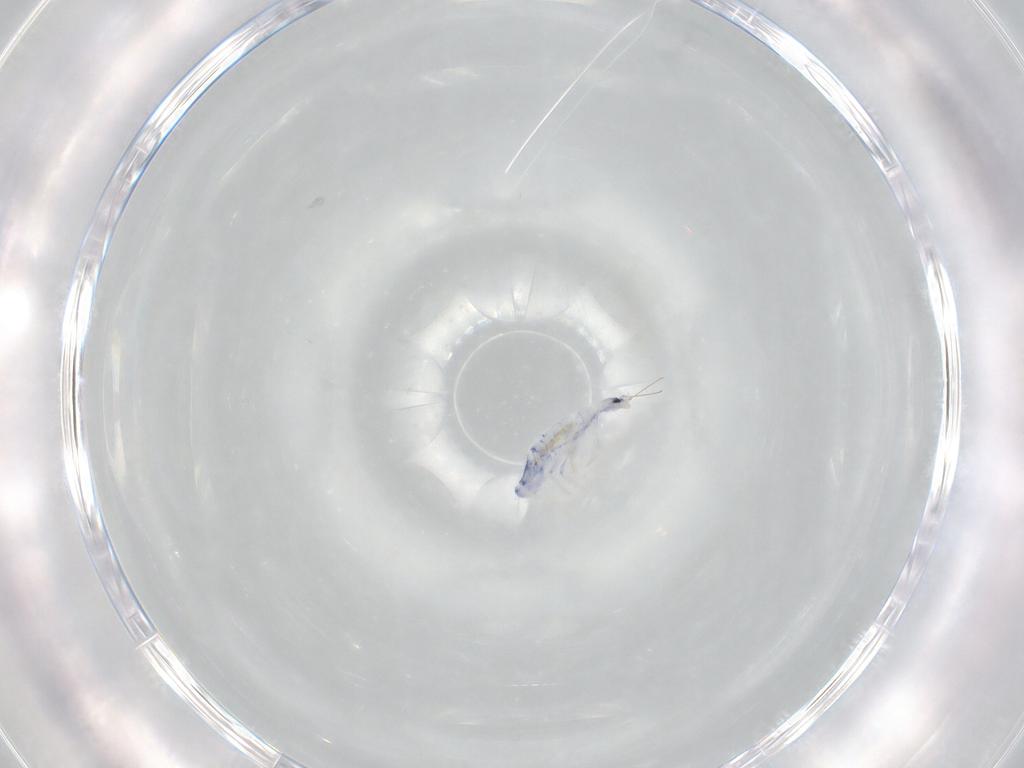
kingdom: Animalia
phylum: Arthropoda
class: Collembola
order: Entomobryomorpha
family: Entomobryidae
